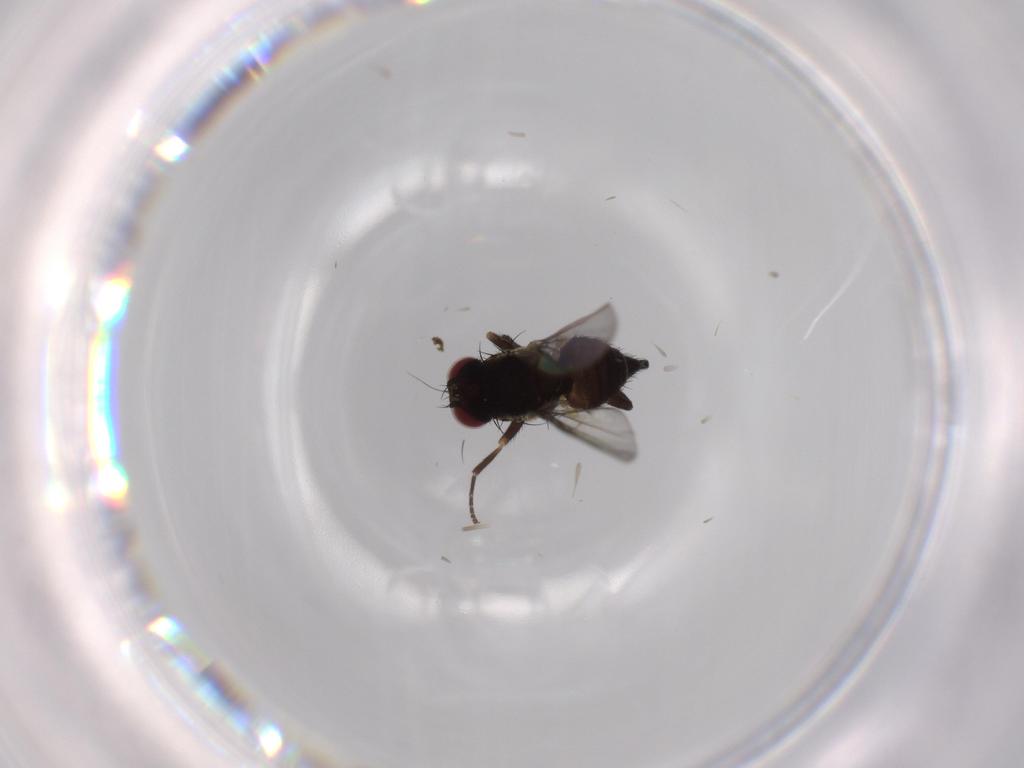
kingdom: Animalia
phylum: Arthropoda
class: Insecta
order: Diptera
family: Agromyzidae
